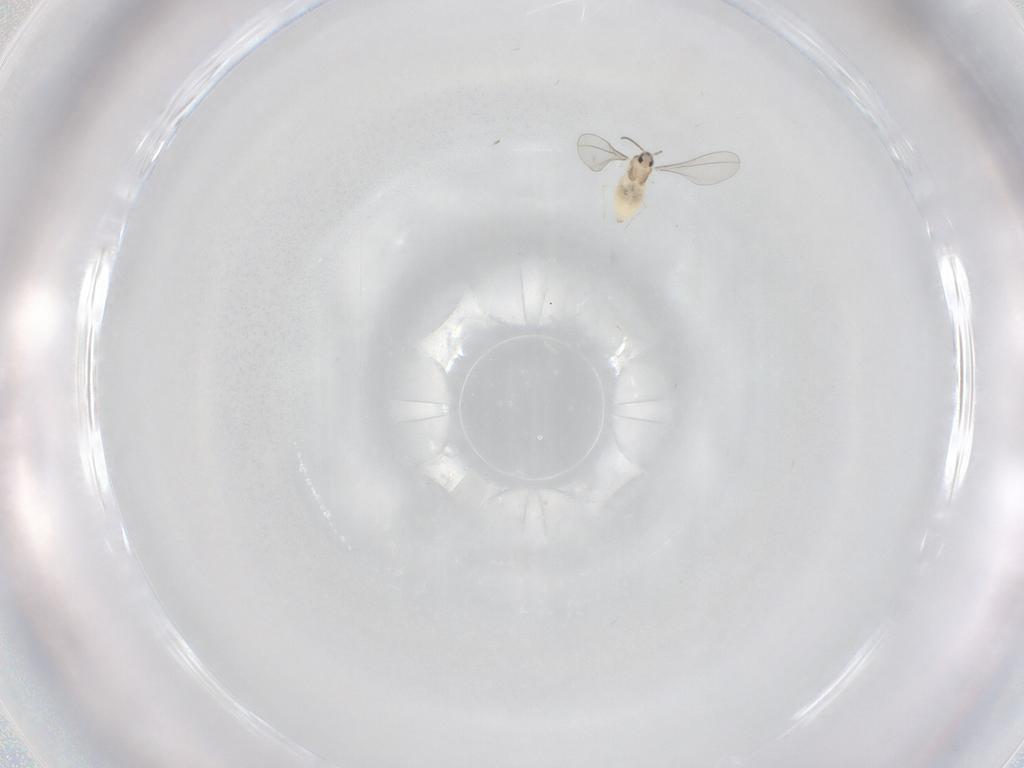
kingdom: Animalia
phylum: Arthropoda
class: Insecta
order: Diptera
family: Cecidomyiidae
